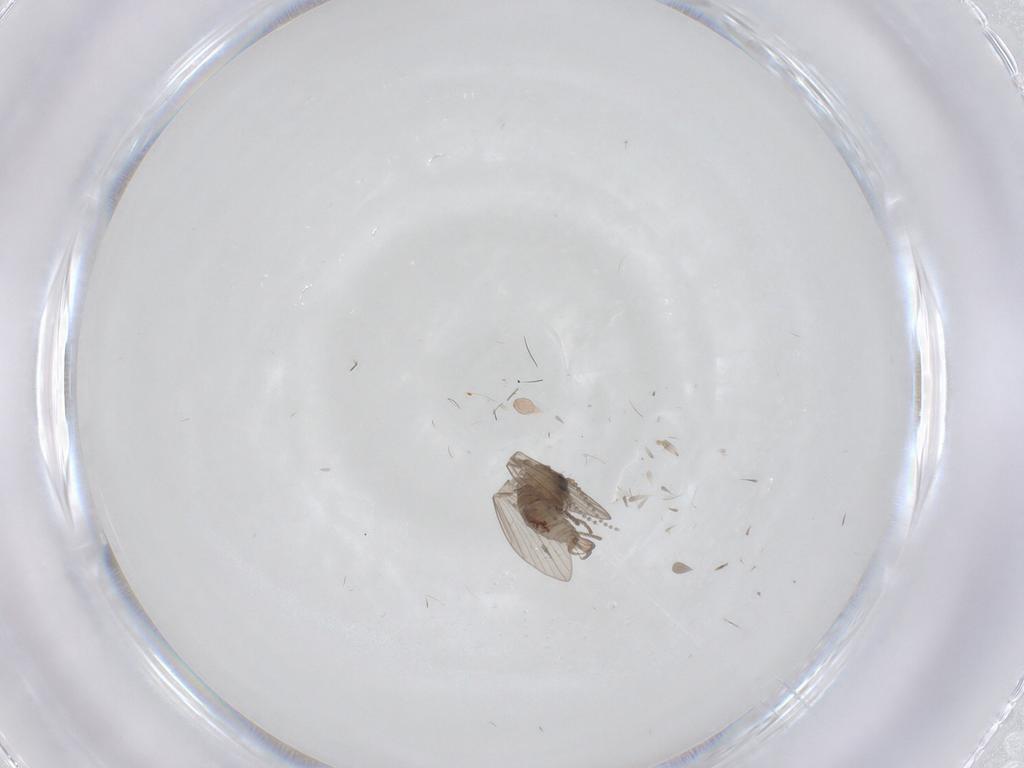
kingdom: Animalia
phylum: Arthropoda
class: Insecta
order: Diptera
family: Psychodidae
